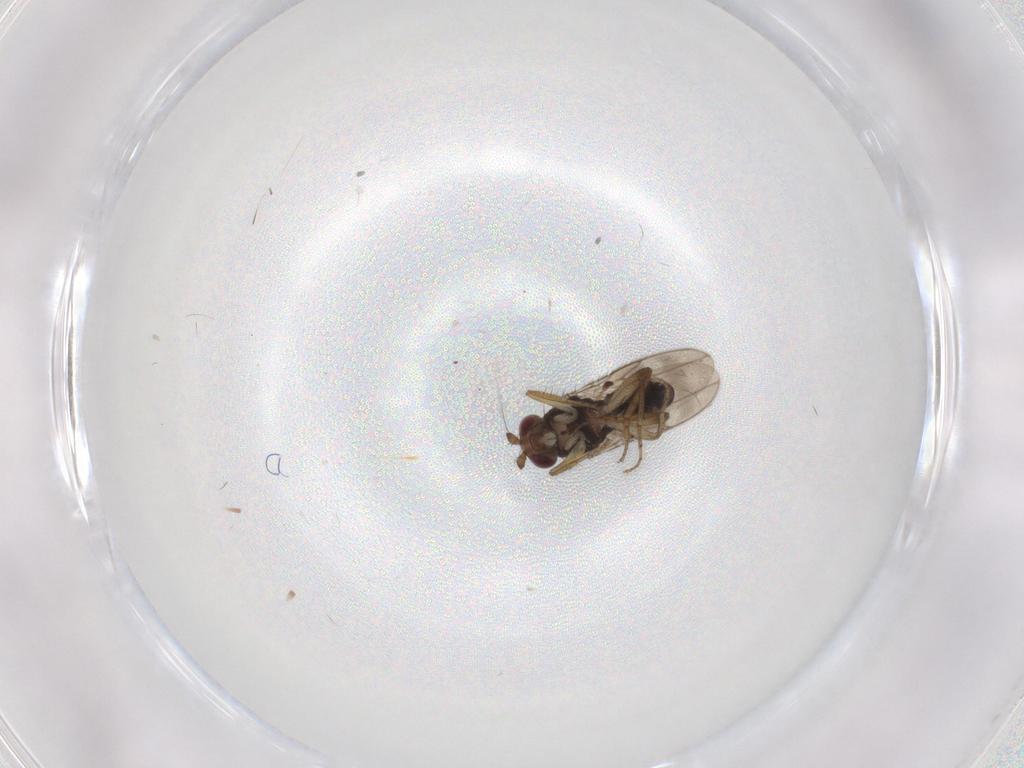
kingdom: Animalia
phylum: Arthropoda
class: Insecta
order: Diptera
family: Sphaeroceridae
